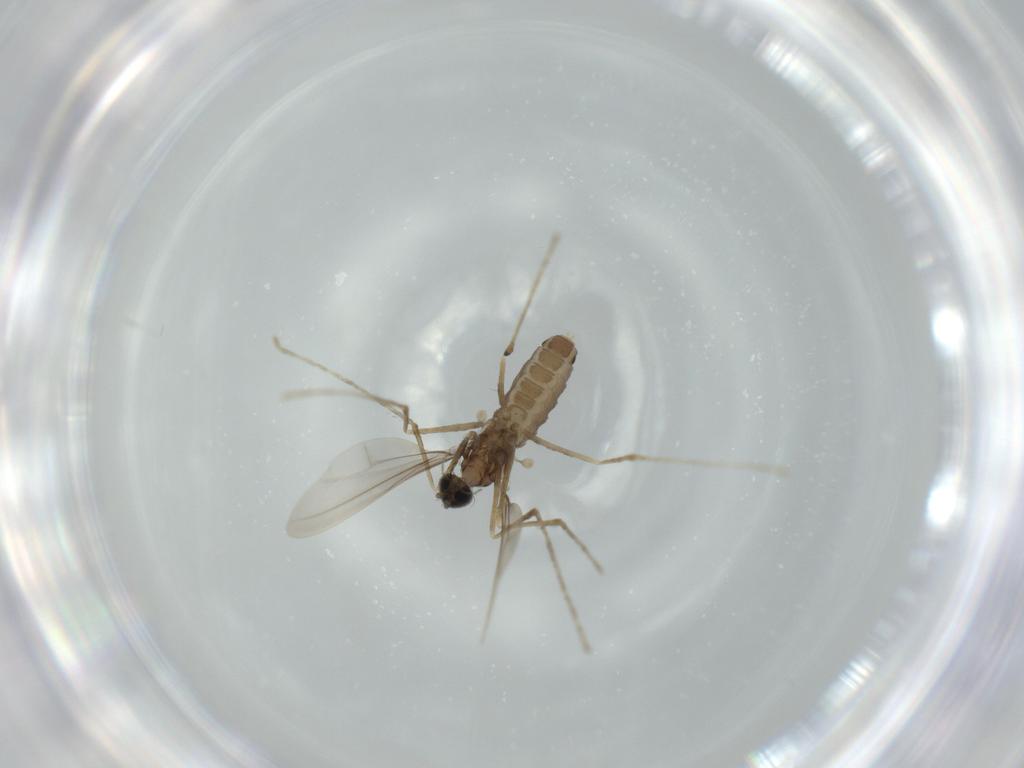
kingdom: Animalia
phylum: Arthropoda
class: Insecta
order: Diptera
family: Cecidomyiidae
